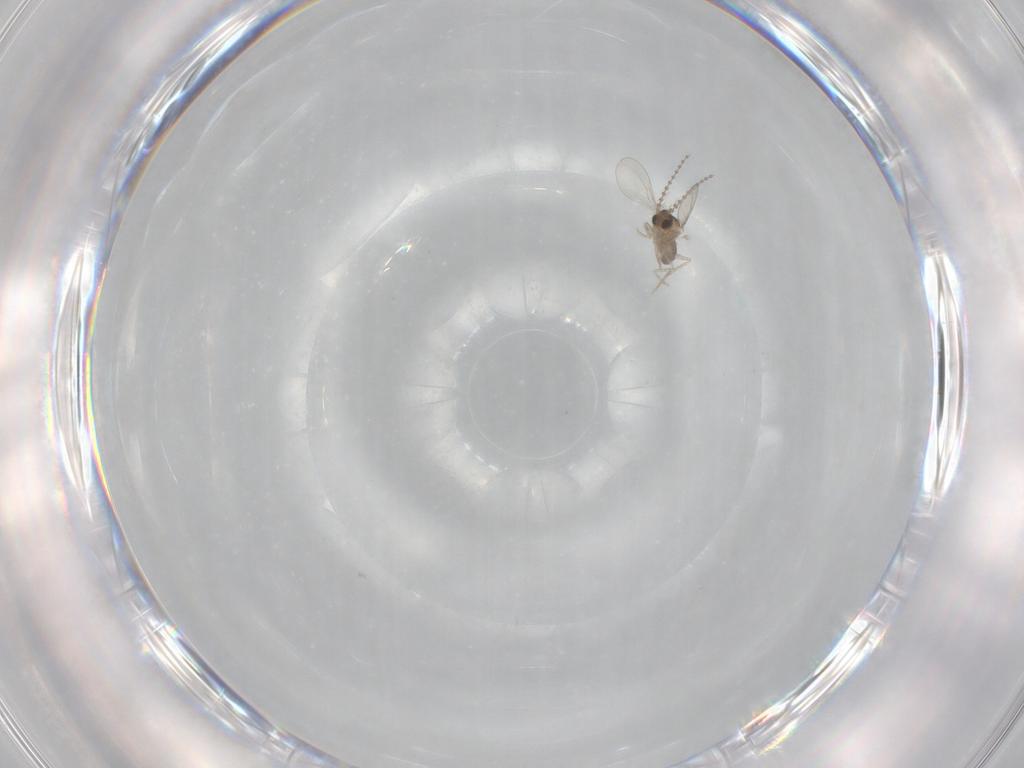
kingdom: Animalia
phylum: Arthropoda
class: Insecta
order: Diptera
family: Cecidomyiidae
